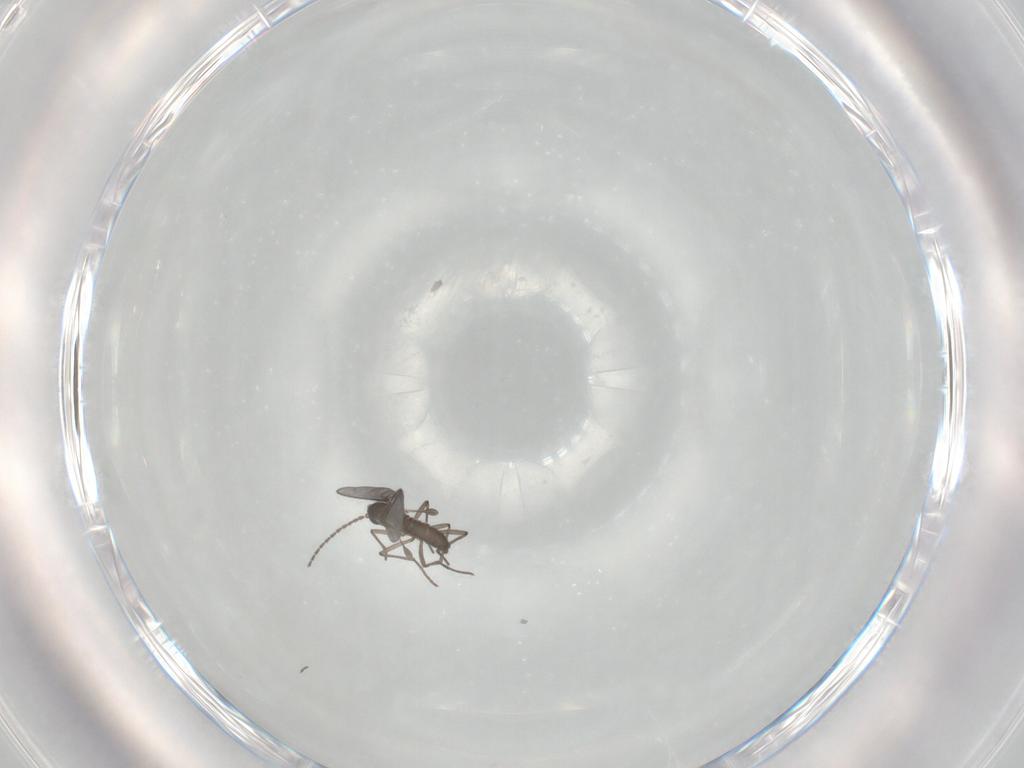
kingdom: Animalia
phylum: Arthropoda
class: Insecta
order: Diptera
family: Sciaridae
